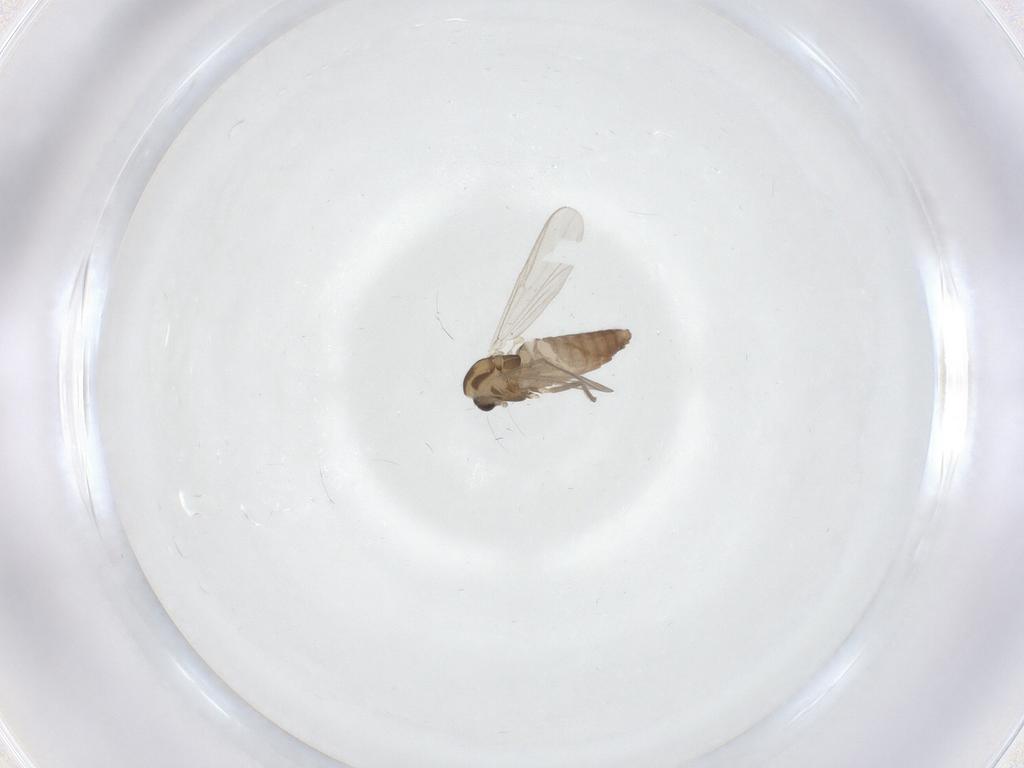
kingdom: Animalia
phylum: Arthropoda
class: Insecta
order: Diptera
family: Chironomidae
